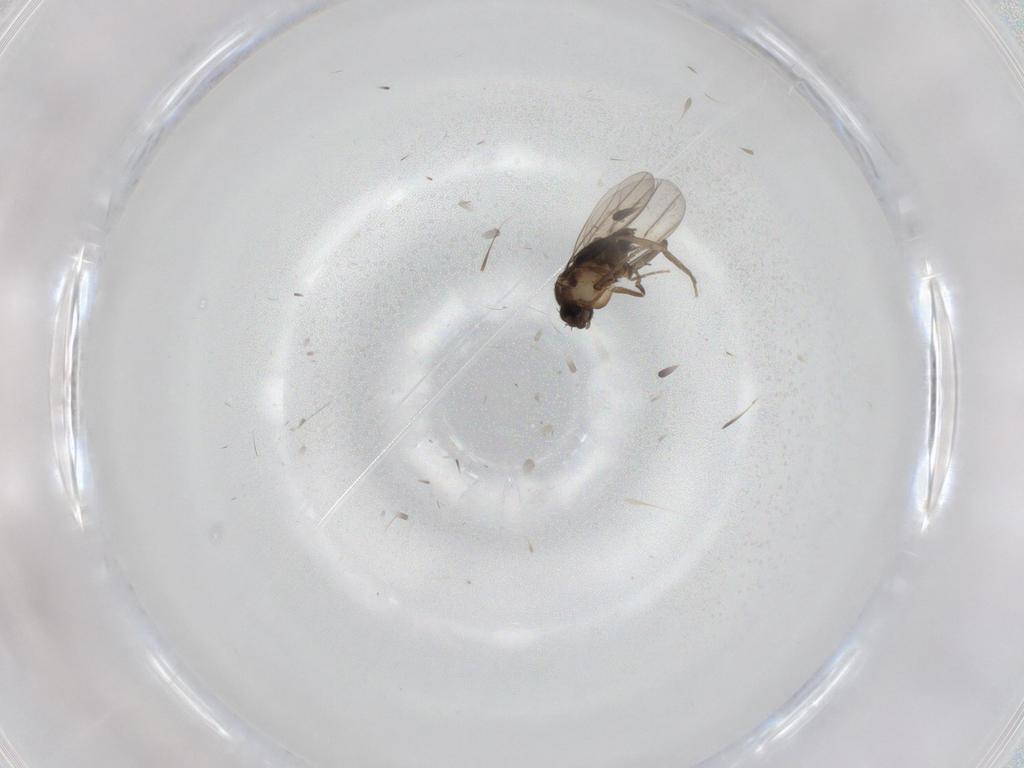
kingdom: Animalia
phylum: Arthropoda
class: Insecta
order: Diptera
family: Phoridae
